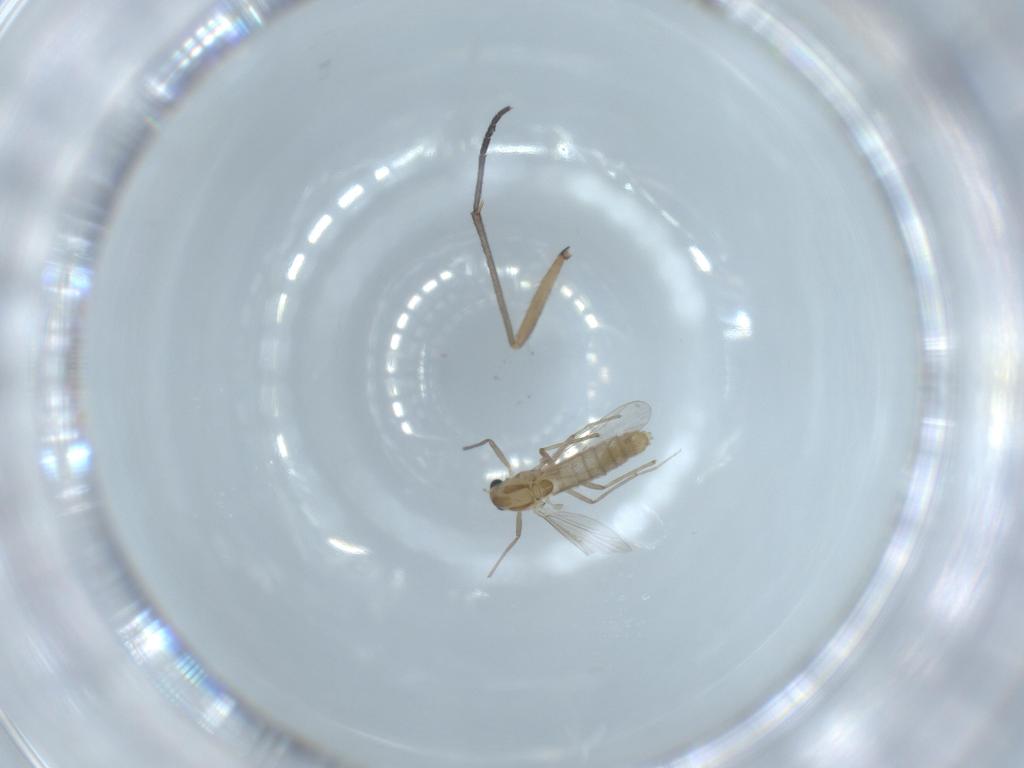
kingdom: Animalia
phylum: Arthropoda
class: Insecta
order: Diptera
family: Chironomidae
